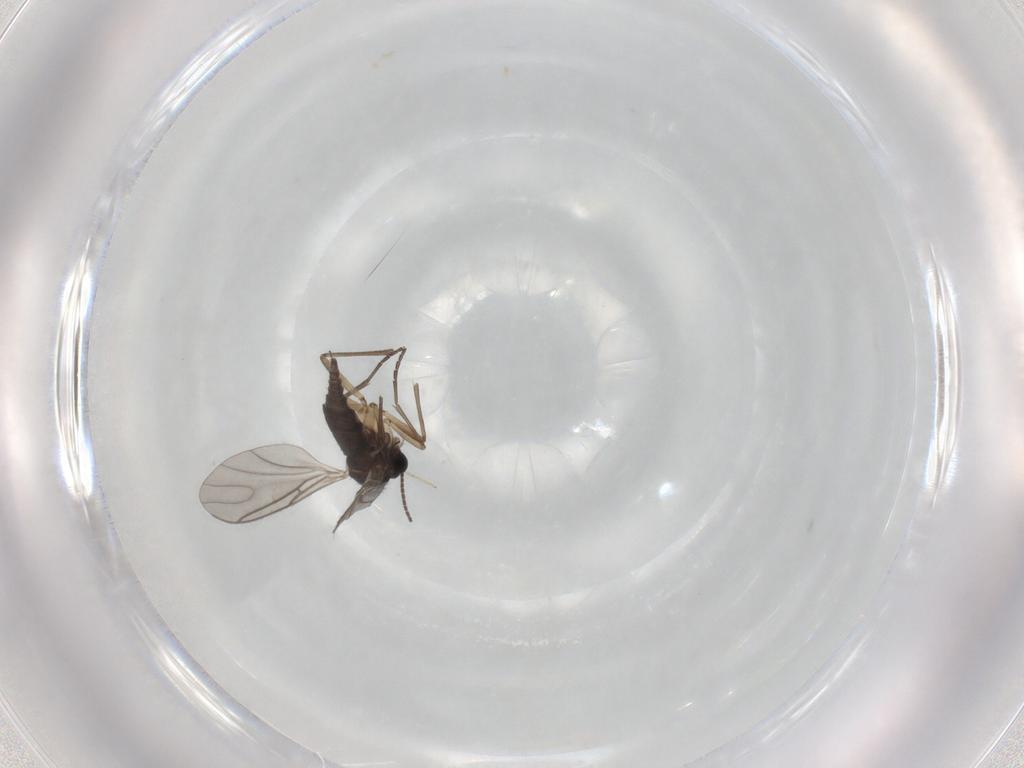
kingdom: Animalia
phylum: Arthropoda
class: Insecta
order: Diptera
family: Sciaridae
